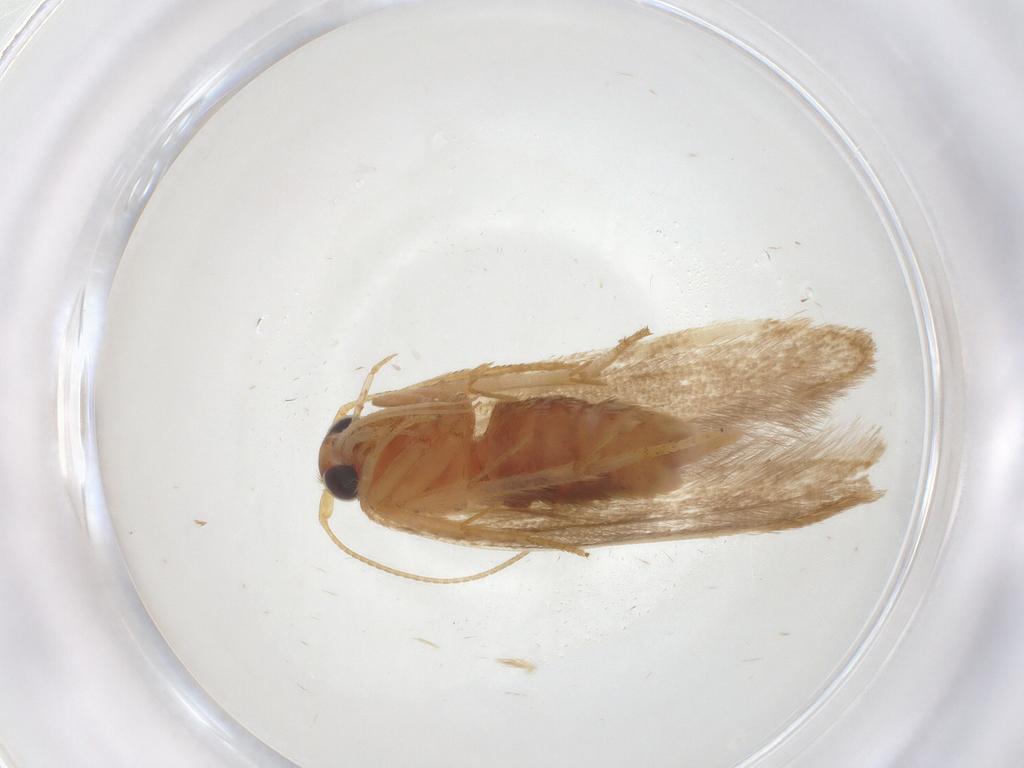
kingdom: Animalia
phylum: Arthropoda
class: Insecta
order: Lepidoptera
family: Blastobasidae
